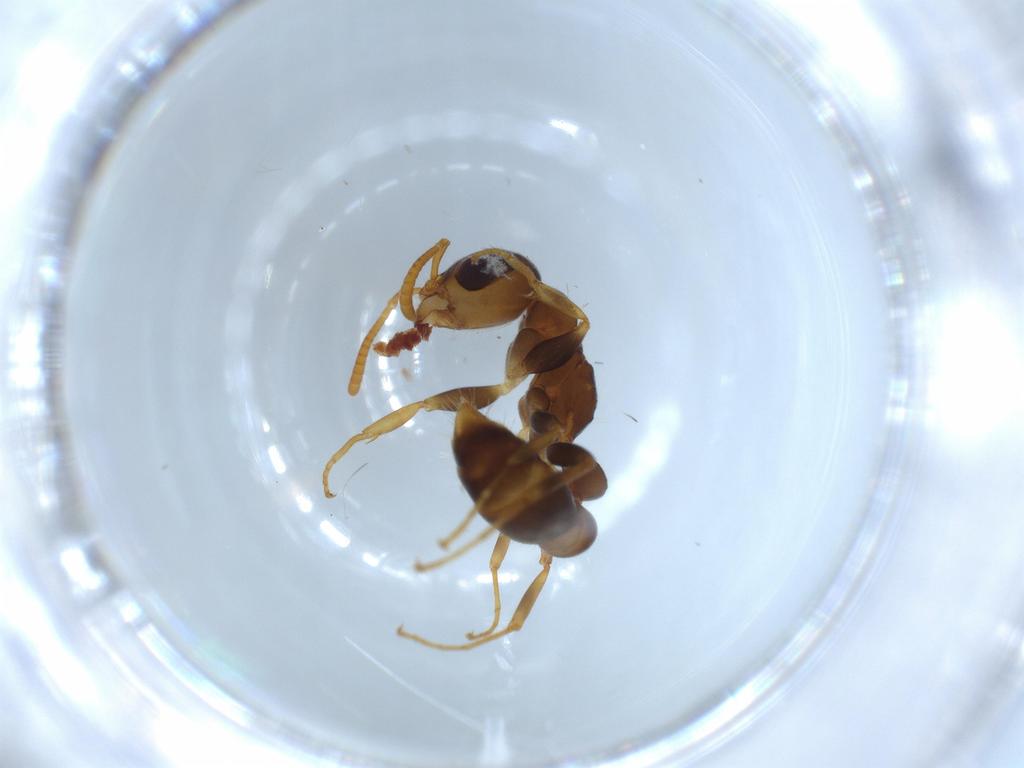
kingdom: Animalia
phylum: Arthropoda
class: Insecta
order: Hymenoptera
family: Formicidae
